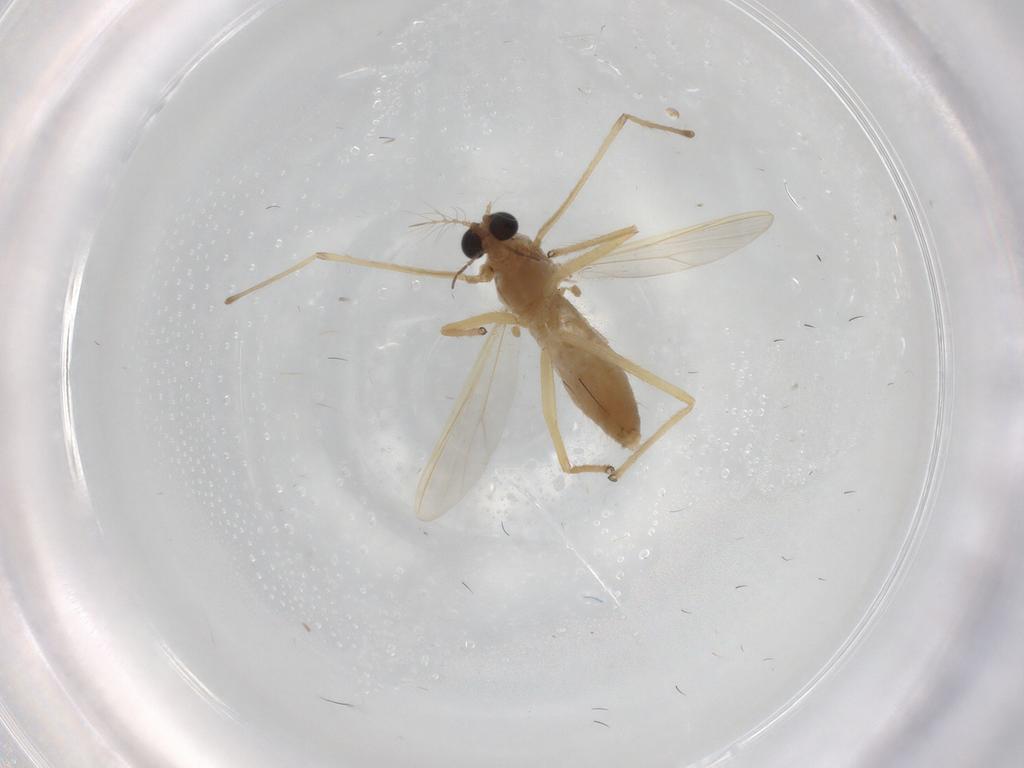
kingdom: Animalia
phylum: Arthropoda
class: Insecta
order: Diptera
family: Chironomidae
